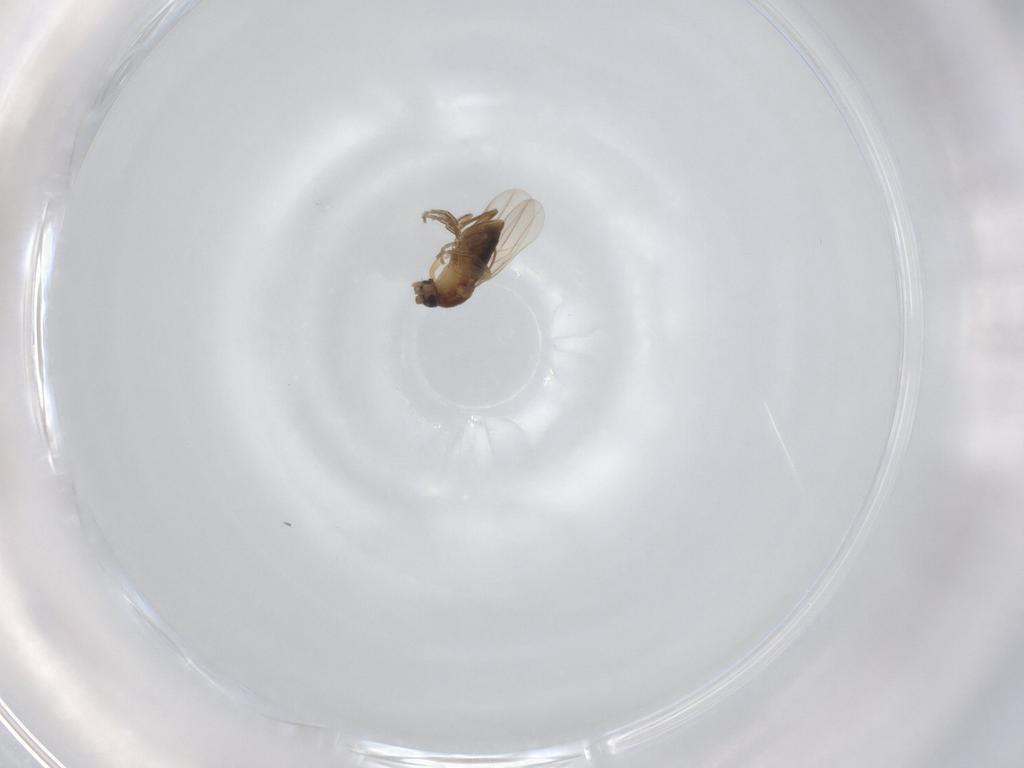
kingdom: Animalia
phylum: Arthropoda
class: Insecta
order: Diptera
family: Phoridae
